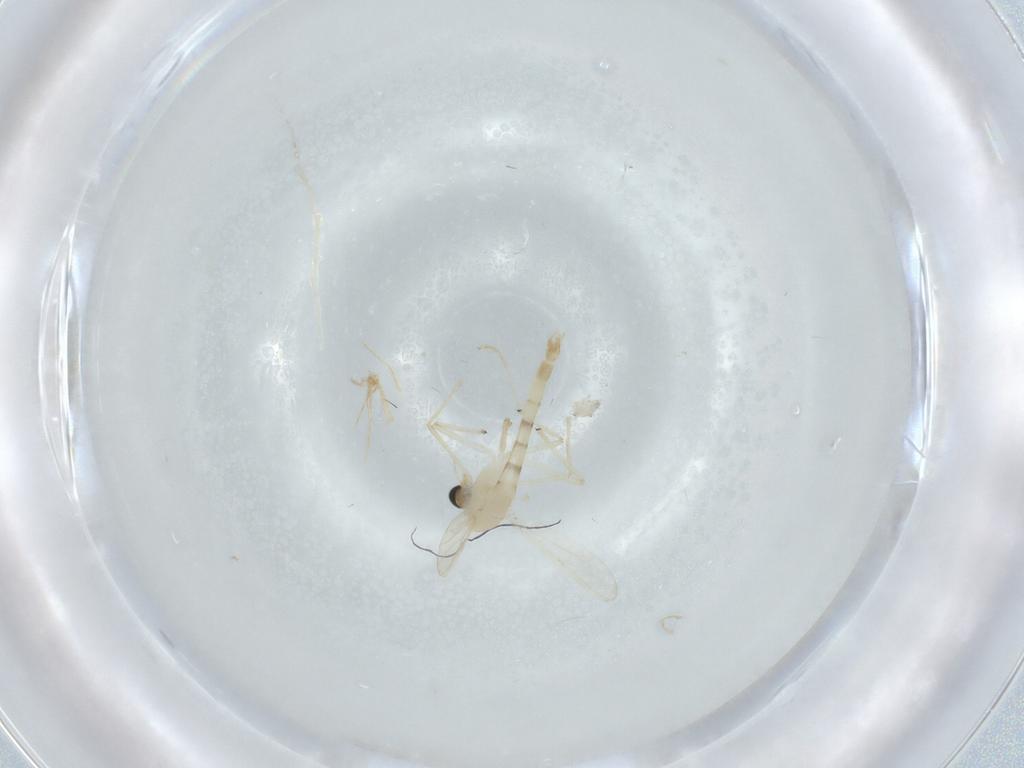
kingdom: Animalia
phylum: Arthropoda
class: Insecta
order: Diptera
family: Chironomidae
